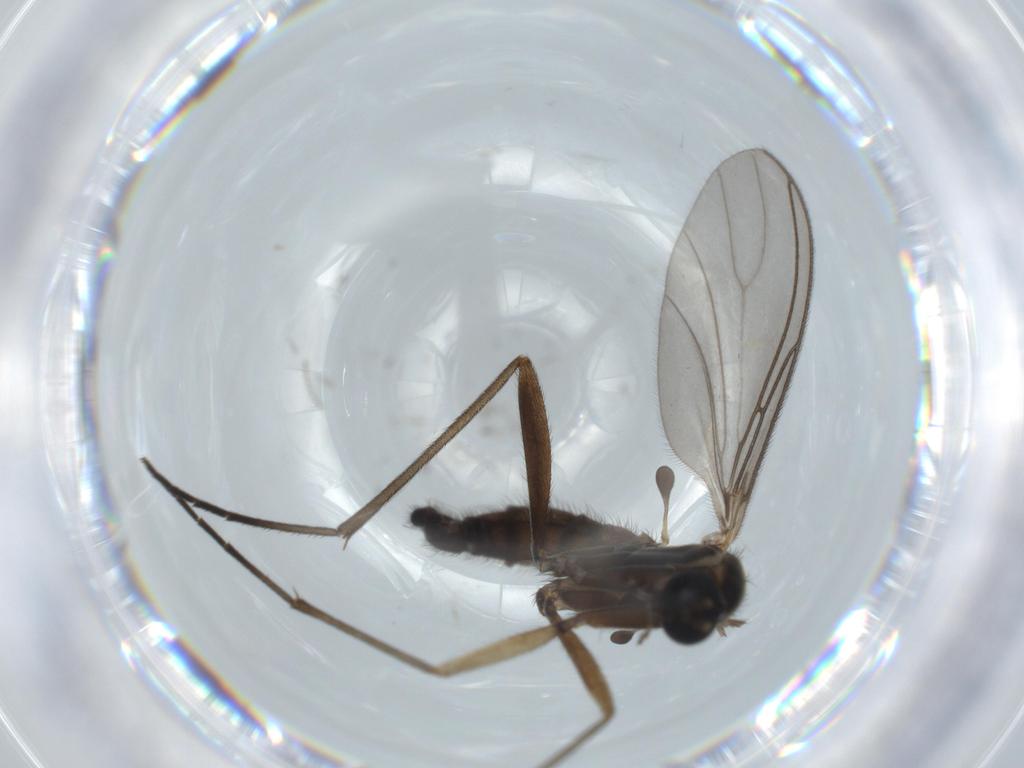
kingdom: Animalia
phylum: Arthropoda
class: Insecta
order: Diptera
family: Sciaridae
